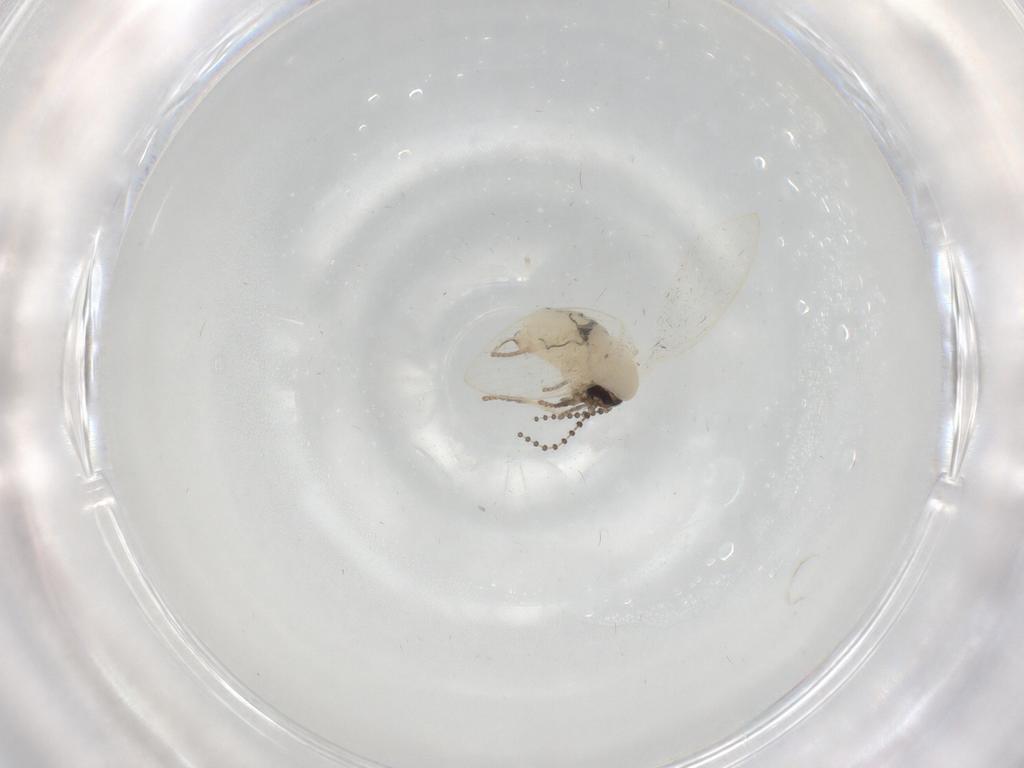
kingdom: Animalia
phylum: Arthropoda
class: Insecta
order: Diptera
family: Psychodidae
